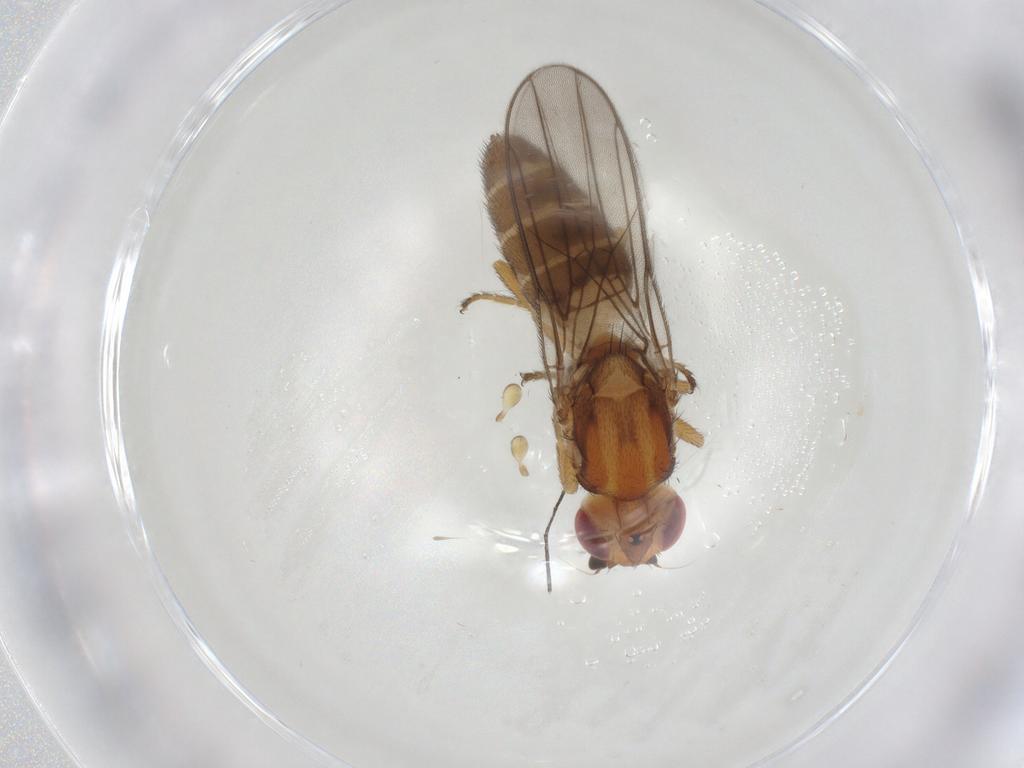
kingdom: Animalia
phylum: Arthropoda
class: Insecta
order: Diptera
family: Chloropidae
